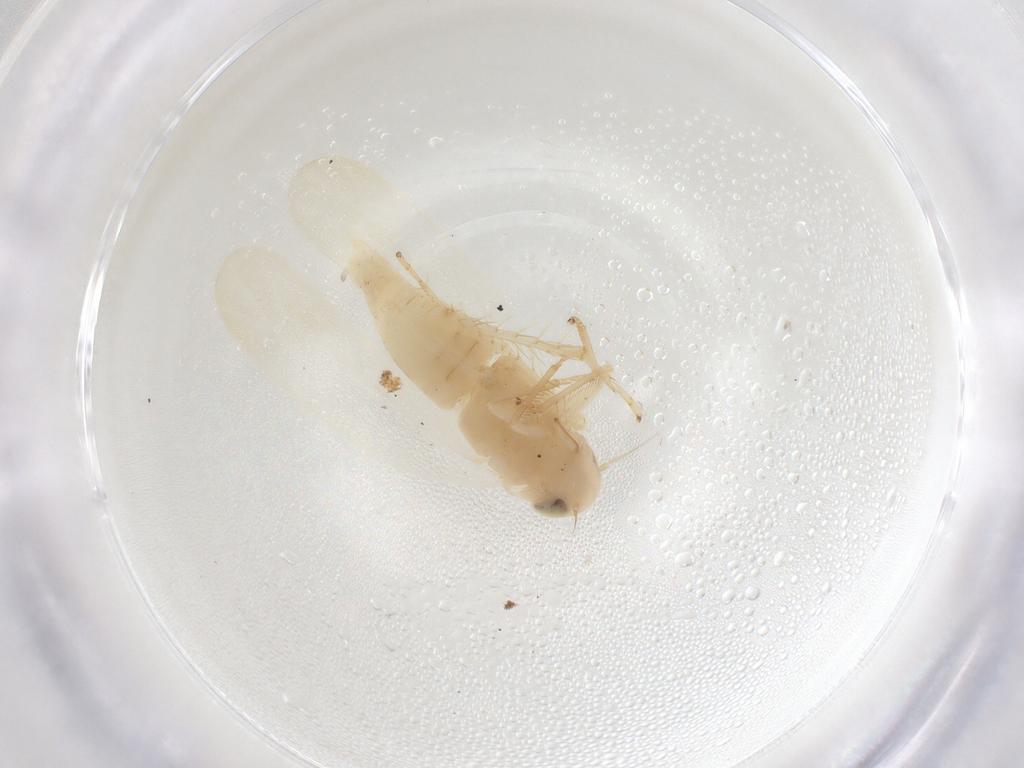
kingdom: Animalia
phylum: Arthropoda
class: Insecta
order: Hemiptera
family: Cicadellidae
